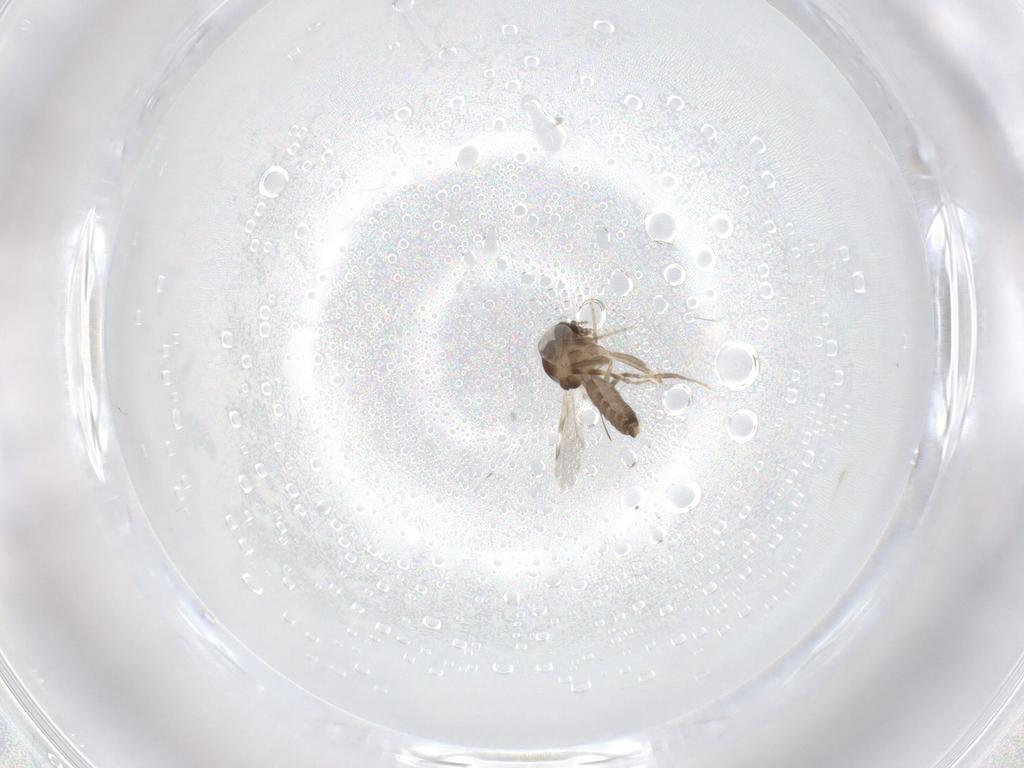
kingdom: Animalia
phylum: Arthropoda
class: Insecta
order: Diptera
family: Ceratopogonidae
